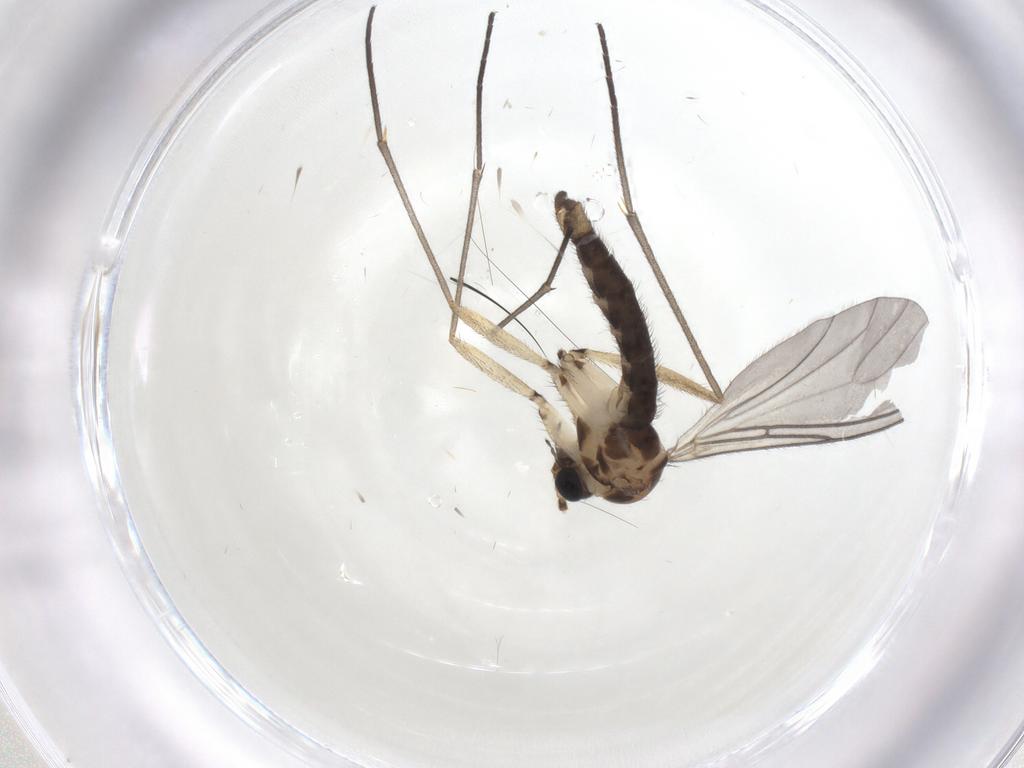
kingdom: Animalia
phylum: Arthropoda
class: Insecta
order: Diptera
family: Sciaridae
